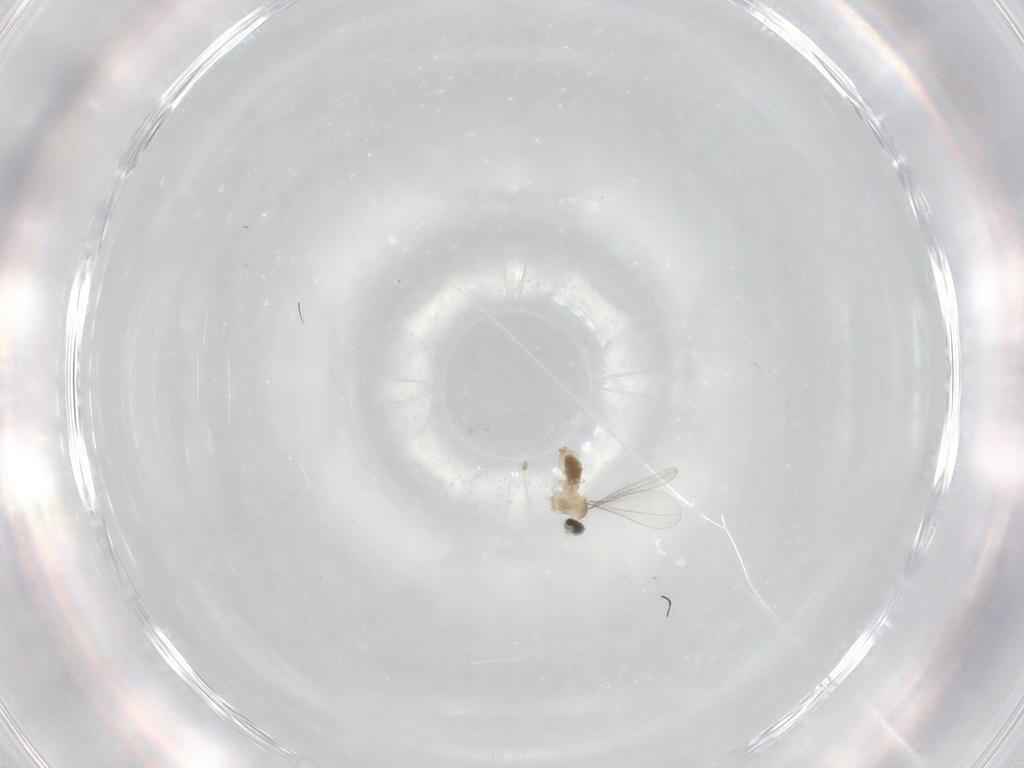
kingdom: Animalia
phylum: Arthropoda
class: Insecta
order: Diptera
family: Cecidomyiidae
